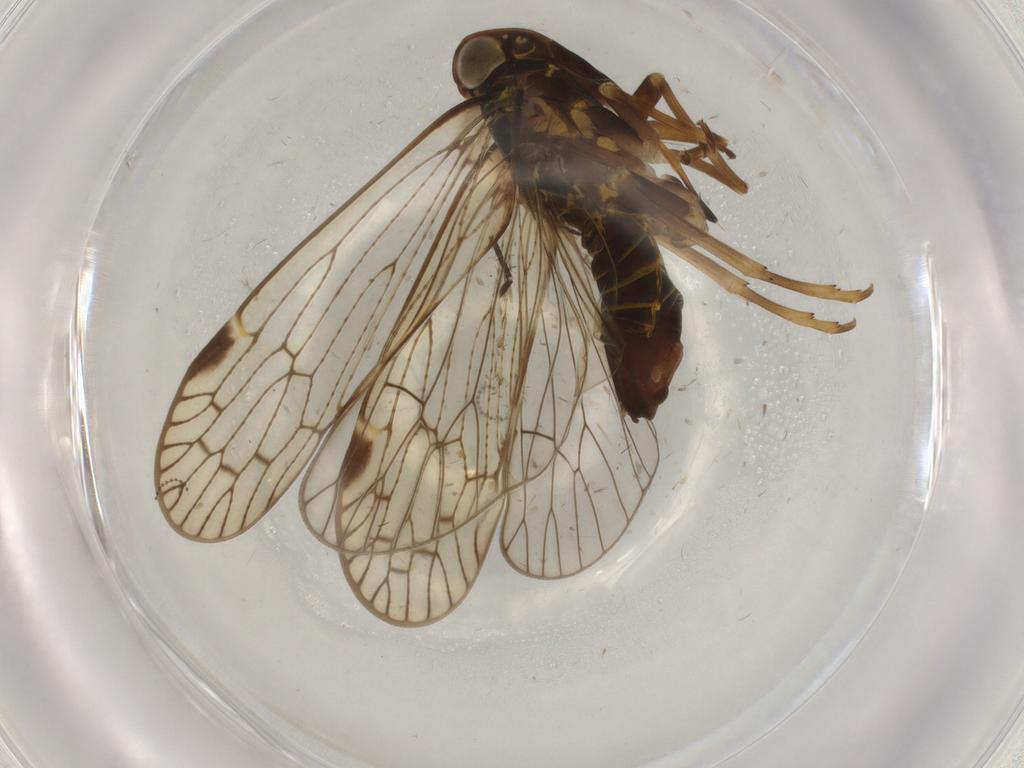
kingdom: Animalia
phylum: Arthropoda
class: Insecta
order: Hemiptera
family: Cixiidae
